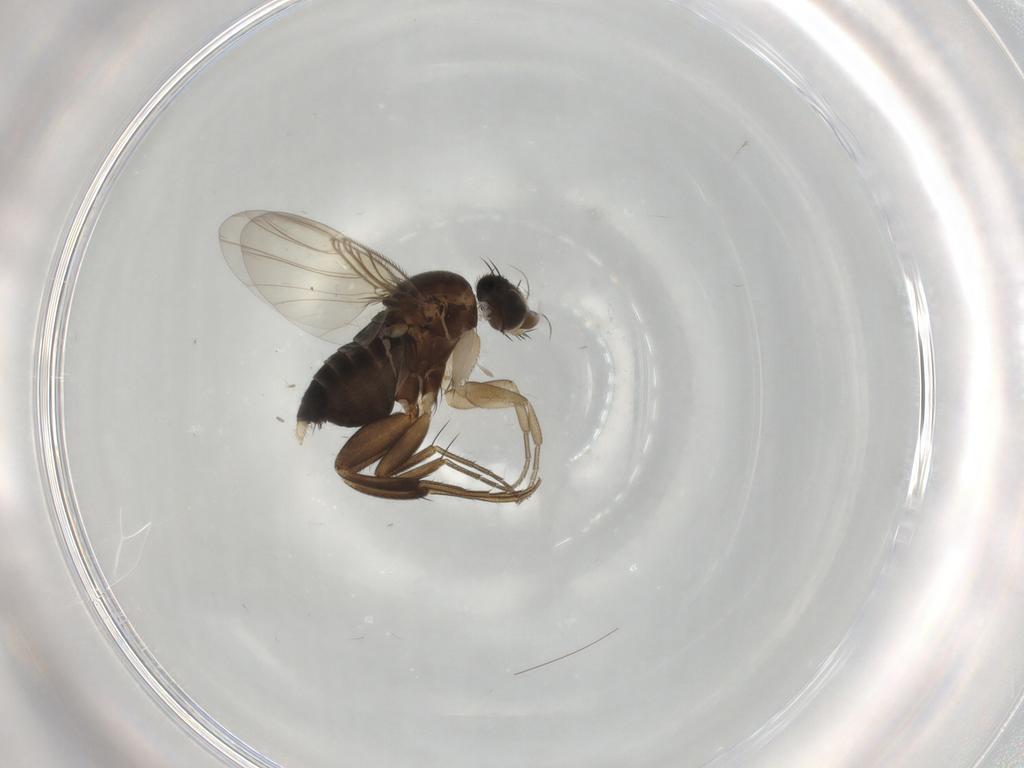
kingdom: Animalia
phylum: Arthropoda
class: Insecta
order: Diptera
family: Phoridae
